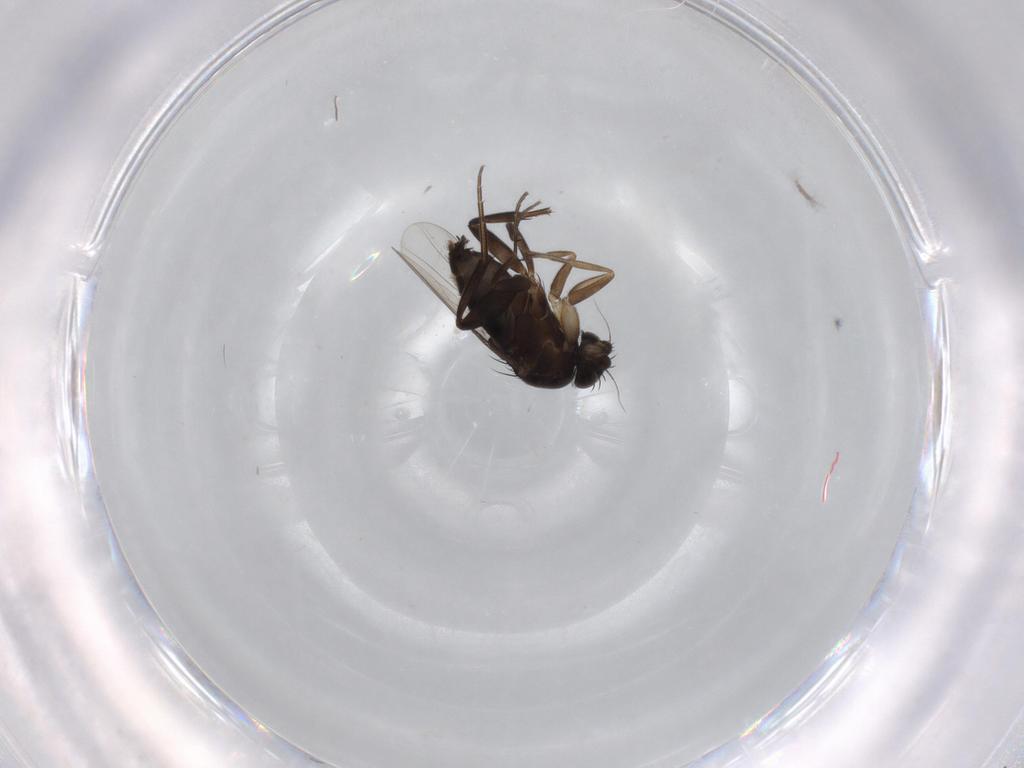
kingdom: Animalia
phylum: Arthropoda
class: Insecta
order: Diptera
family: Phoridae
